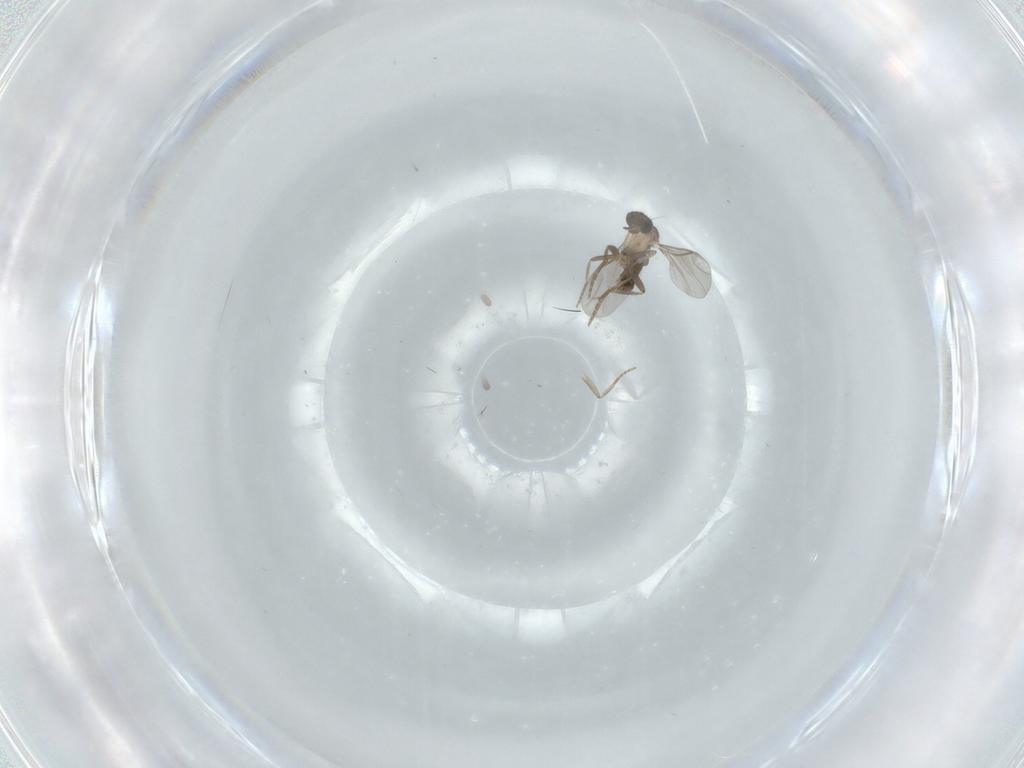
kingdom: Animalia
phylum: Arthropoda
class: Insecta
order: Diptera
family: Phoridae
